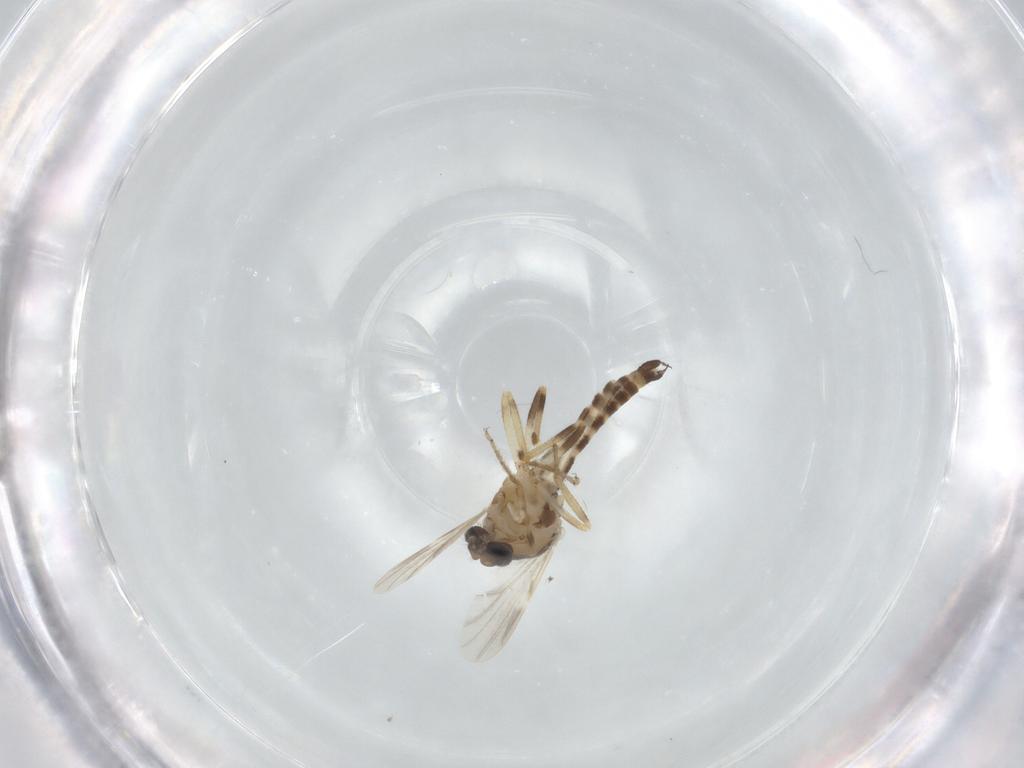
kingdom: Animalia
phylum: Arthropoda
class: Insecta
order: Diptera
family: Ceratopogonidae
